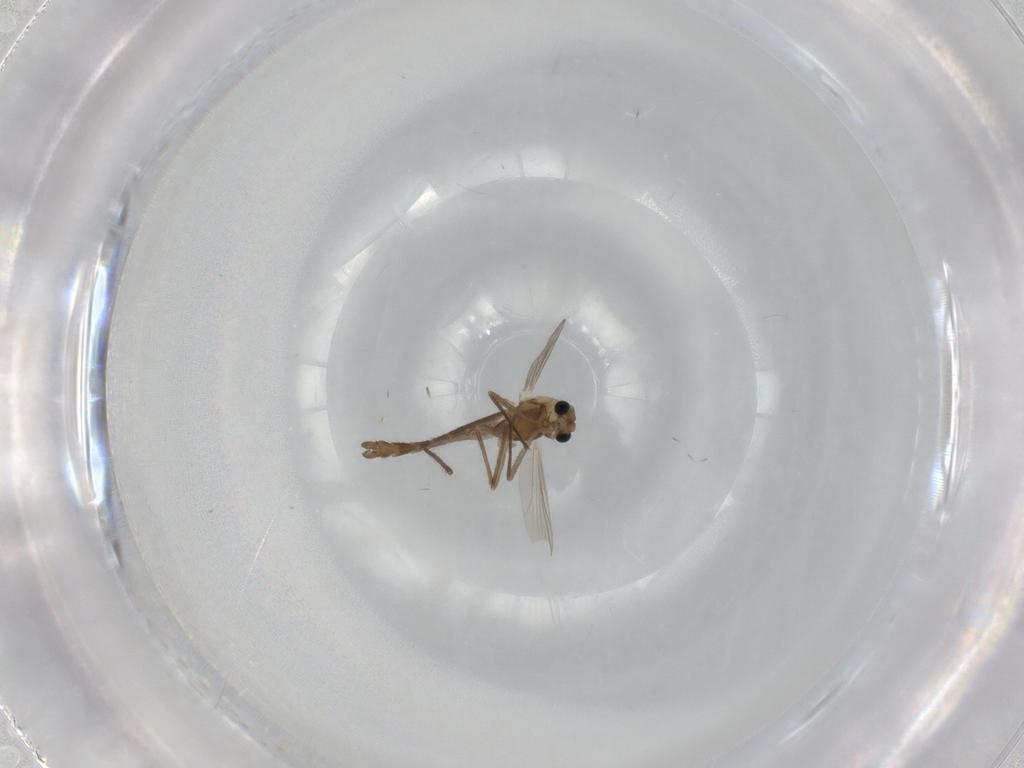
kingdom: Animalia
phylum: Arthropoda
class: Insecta
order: Diptera
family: Chironomidae
